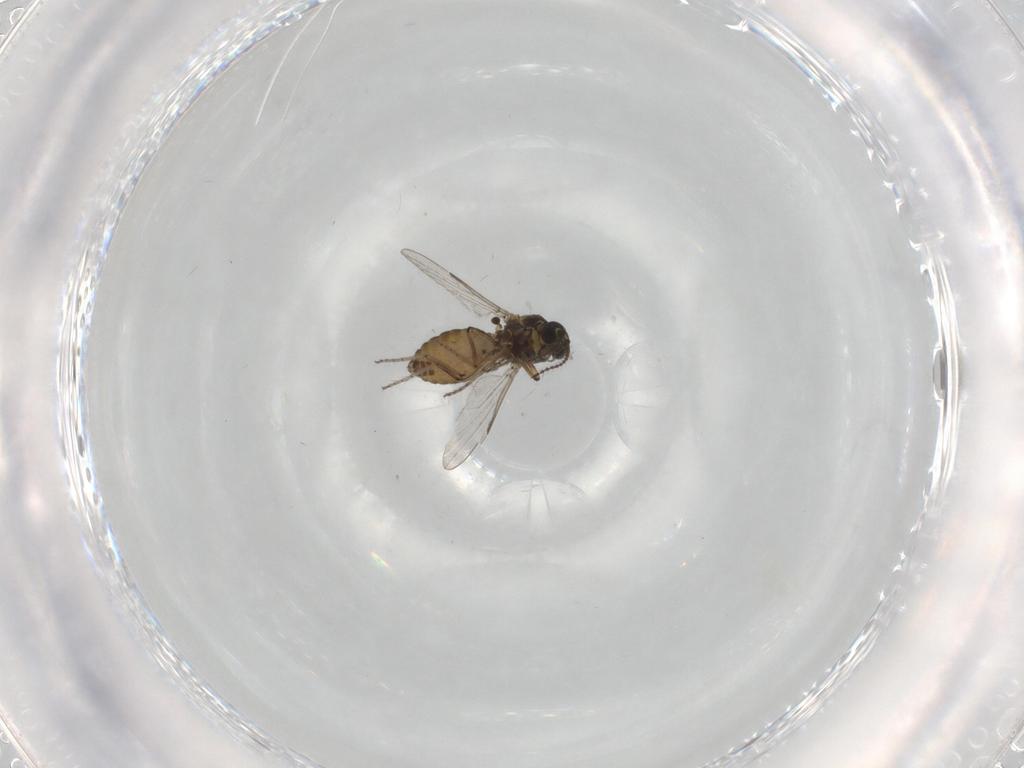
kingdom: Animalia
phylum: Arthropoda
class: Insecta
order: Diptera
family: Ceratopogonidae
